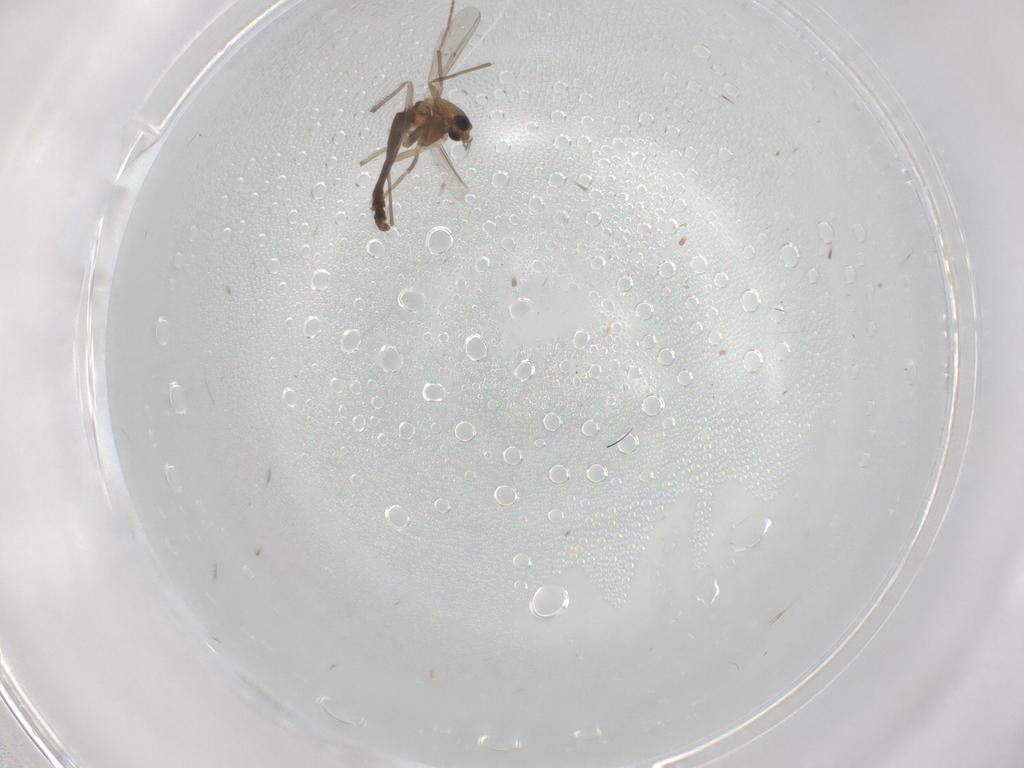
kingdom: Animalia
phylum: Arthropoda
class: Insecta
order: Diptera
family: Chironomidae
